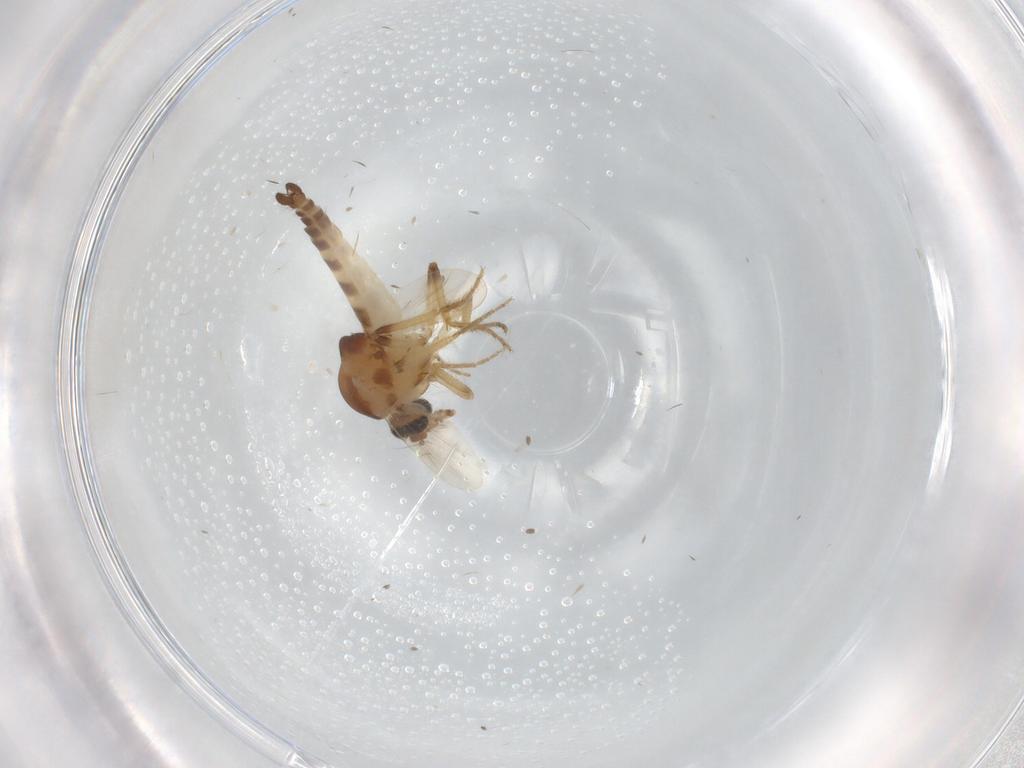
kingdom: Animalia
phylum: Arthropoda
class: Insecta
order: Diptera
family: Ceratopogonidae
